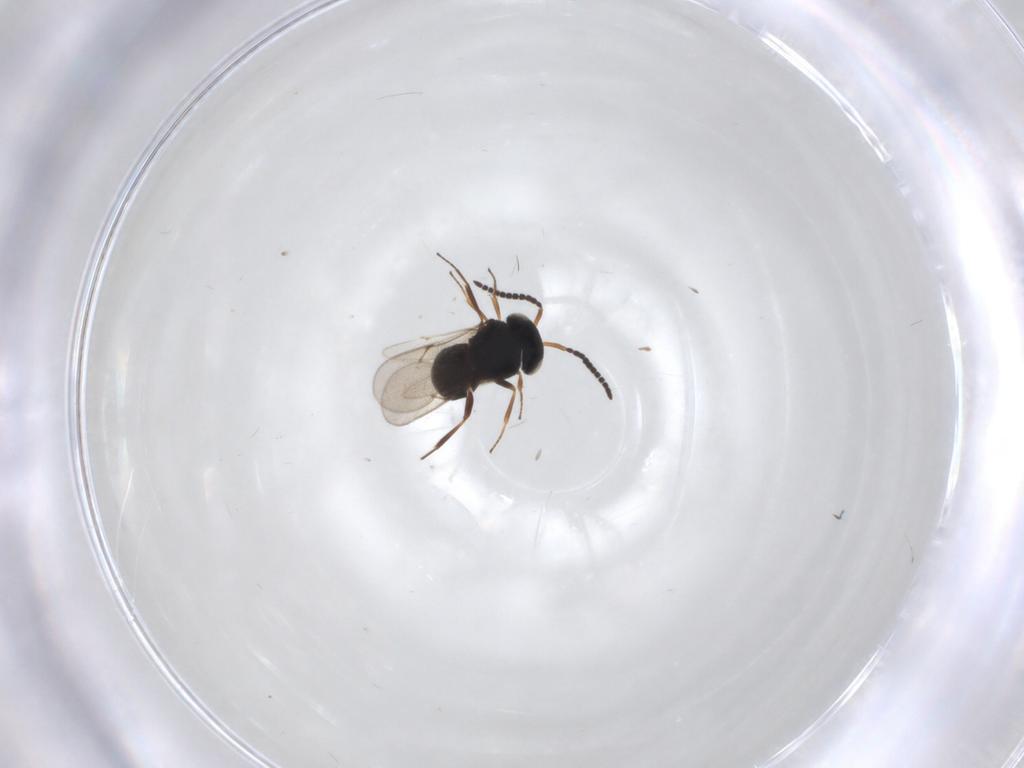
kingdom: Animalia
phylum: Arthropoda
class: Insecta
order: Hymenoptera
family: Scelionidae
